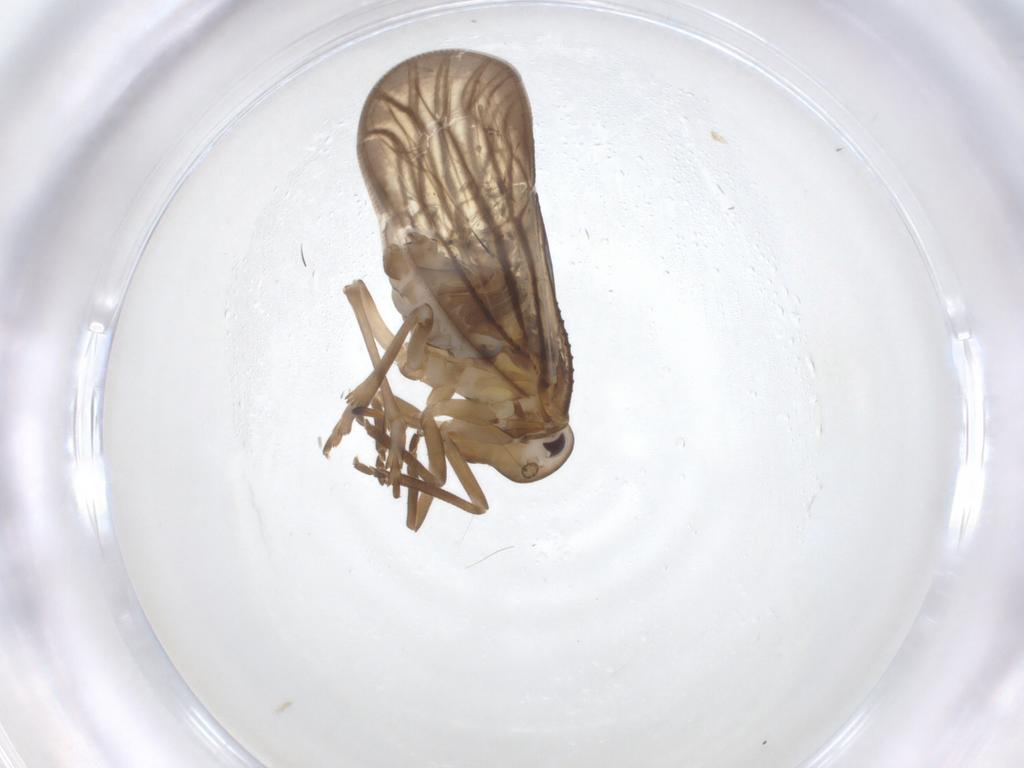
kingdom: Animalia
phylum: Arthropoda
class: Insecta
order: Hemiptera
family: Meenoplidae
